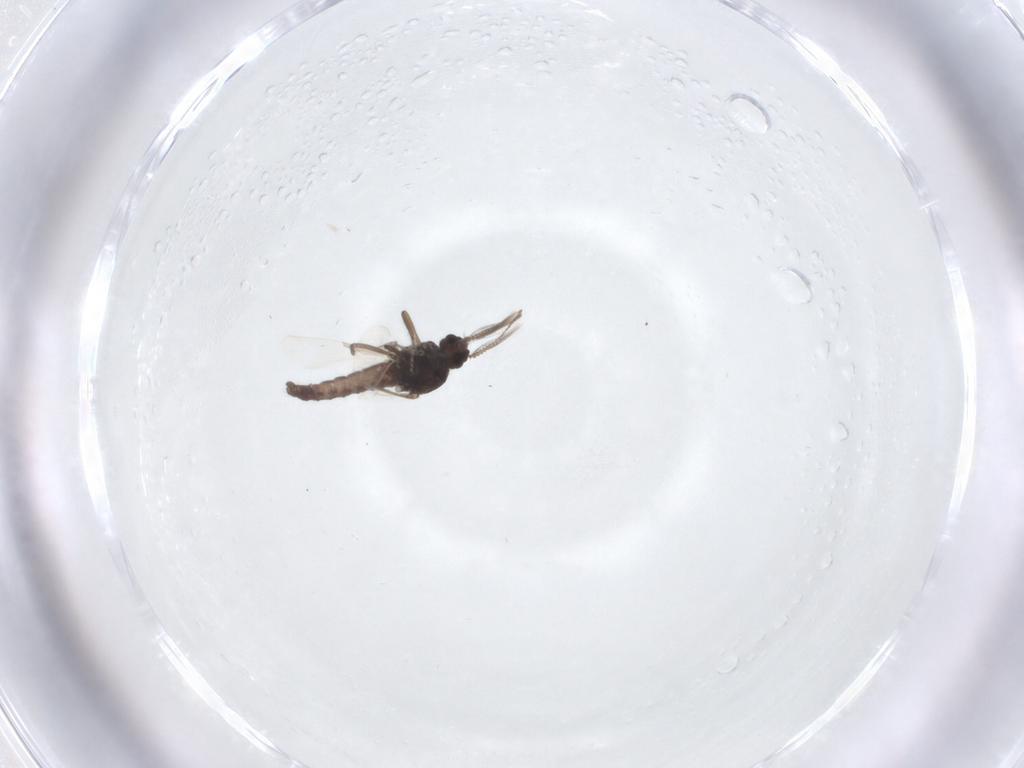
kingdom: Animalia
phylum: Arthropoda
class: Insecta
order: Diptera
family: Ceratopogonidae
